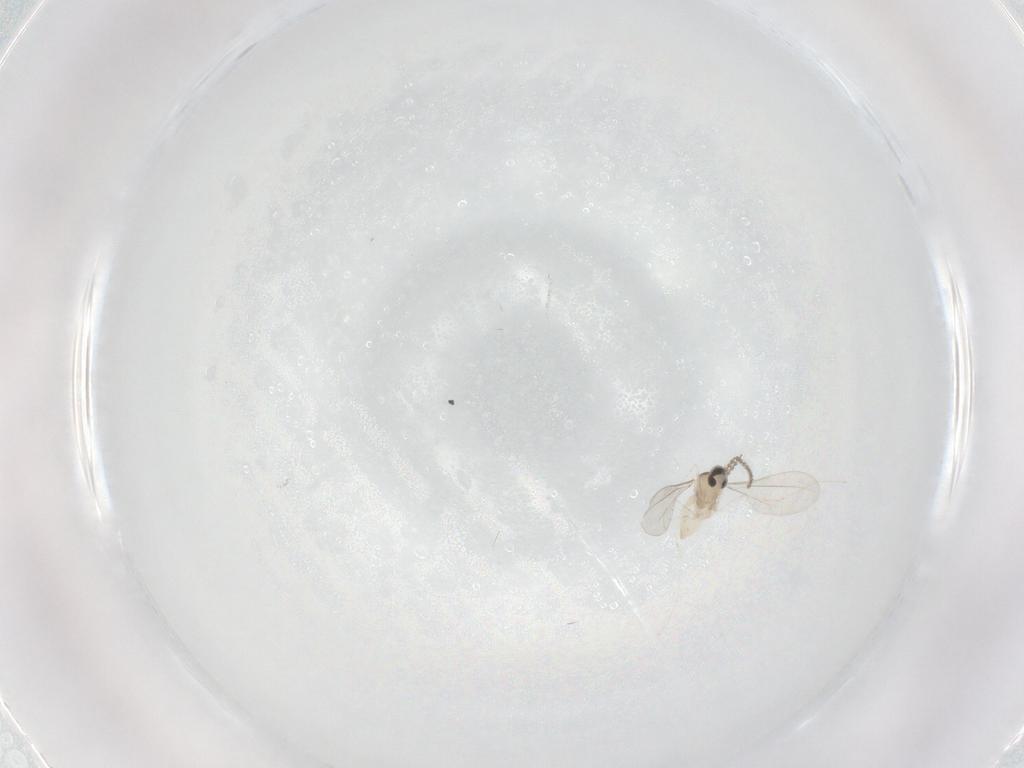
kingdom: Animalia
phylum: Arthropoda
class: Insecta
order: Diptera
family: Cecidomyiidae
